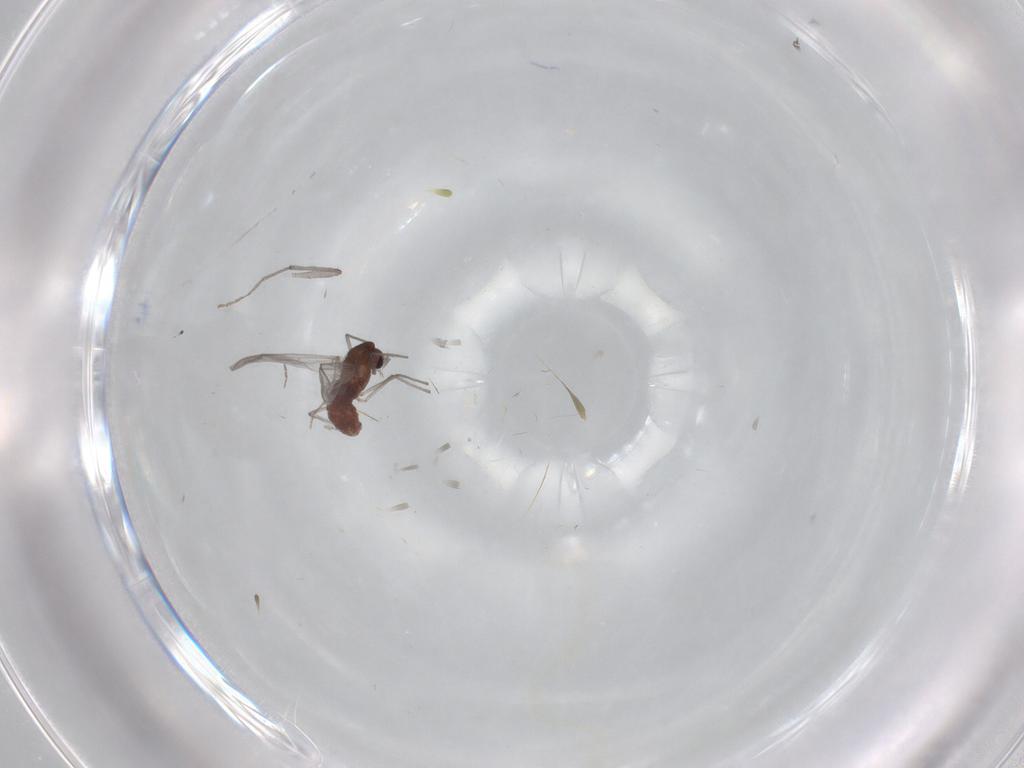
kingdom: Animalia
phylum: Arthropoda
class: Insecta
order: Diptera
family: Chironomidae
